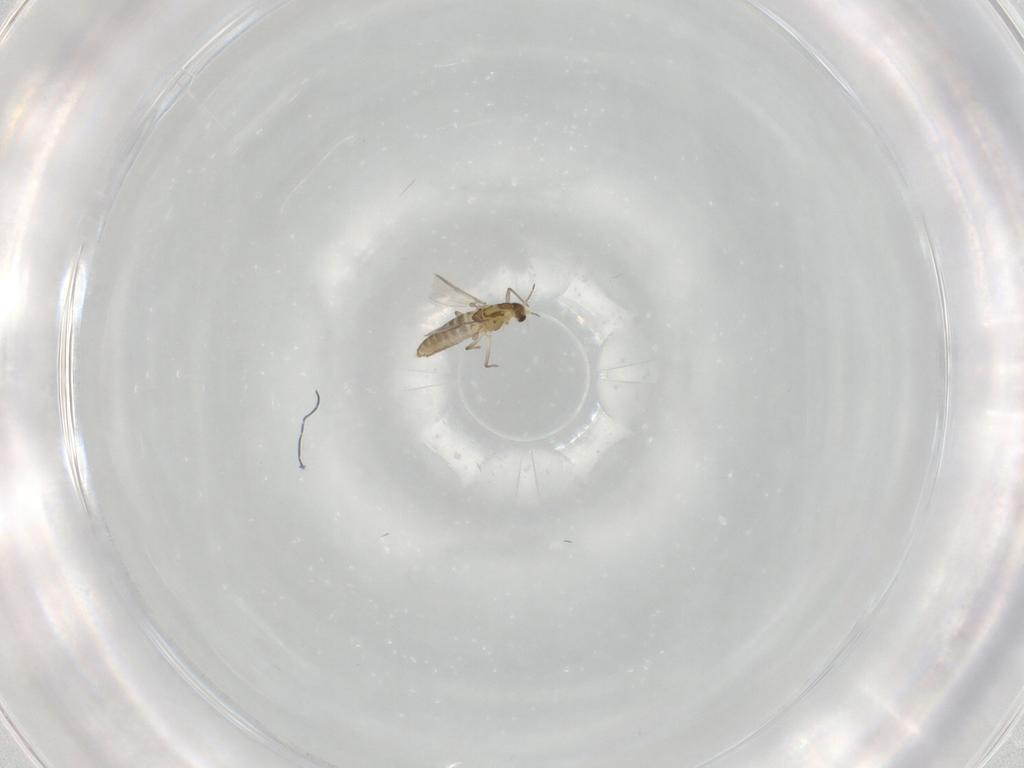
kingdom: Animalia
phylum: Arthropoda
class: Insecta
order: Diptera
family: Chironomidae
